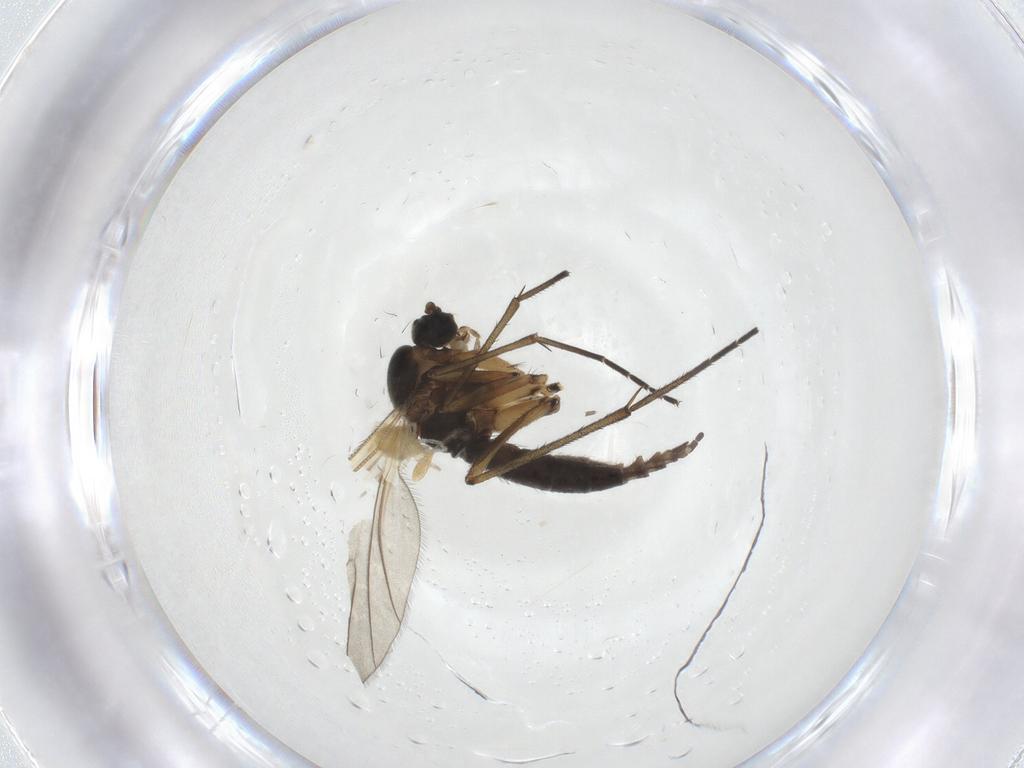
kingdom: Animalia
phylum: Arthropoda
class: Insecta
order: Diptera
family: Sciaridae
